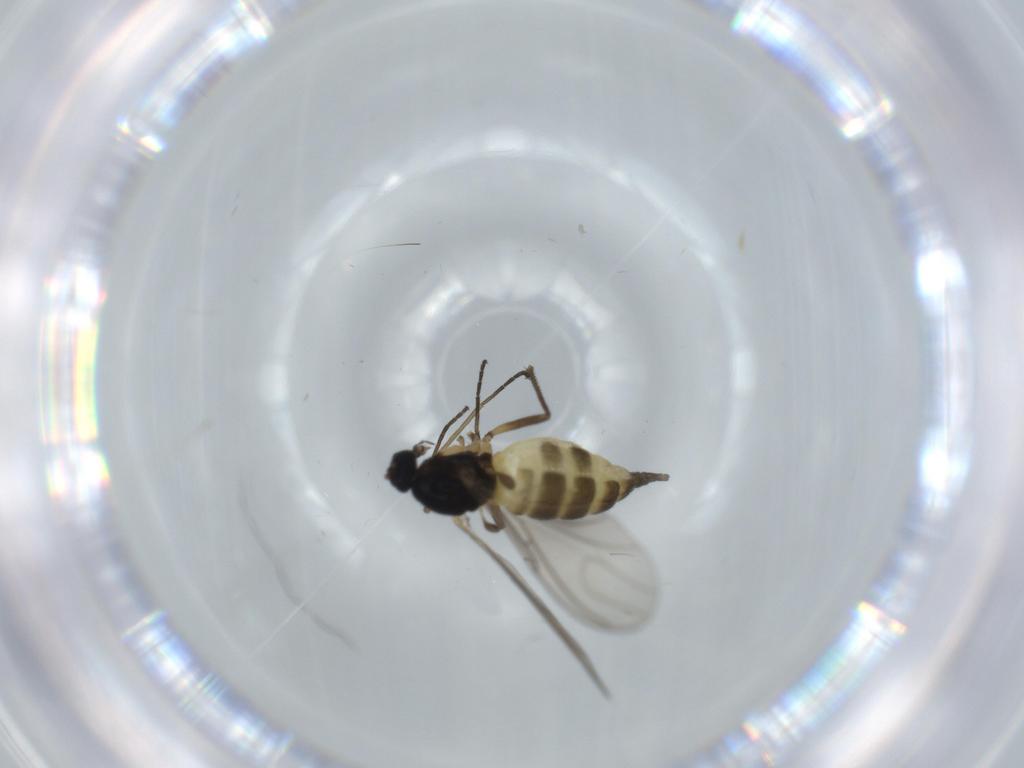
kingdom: Animalia
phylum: Arthropoda
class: Insecta
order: Diptera
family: Sciaridae
